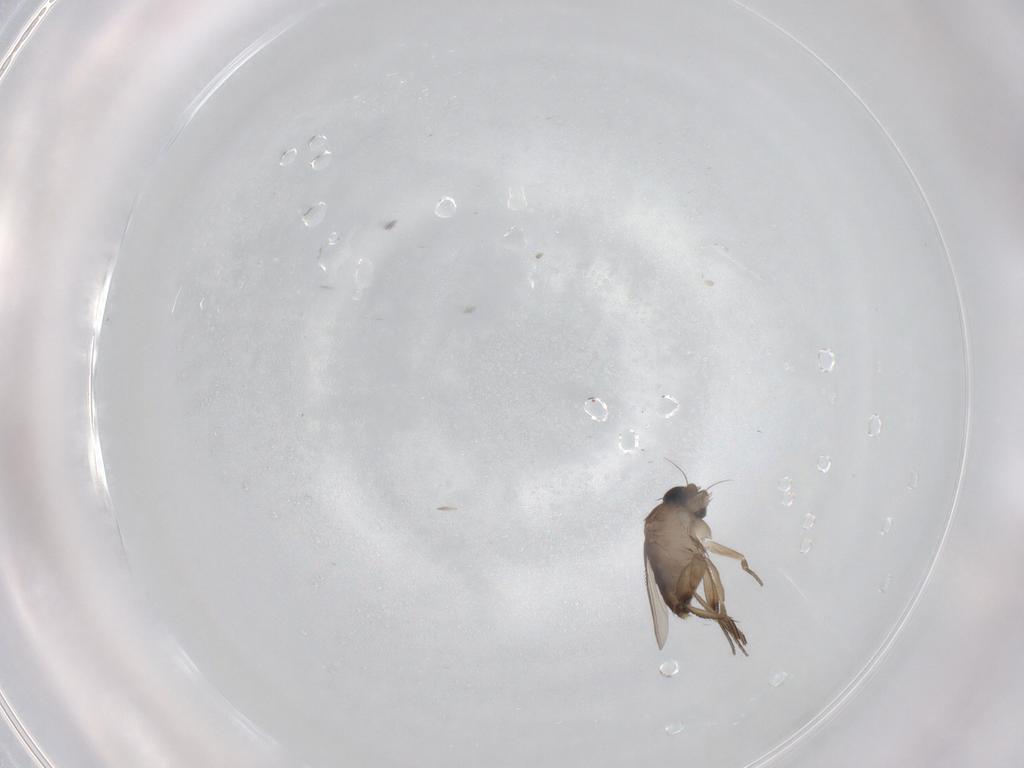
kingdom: Animalia
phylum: Arthropoda
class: Insecta
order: Diptera
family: Phoridae
